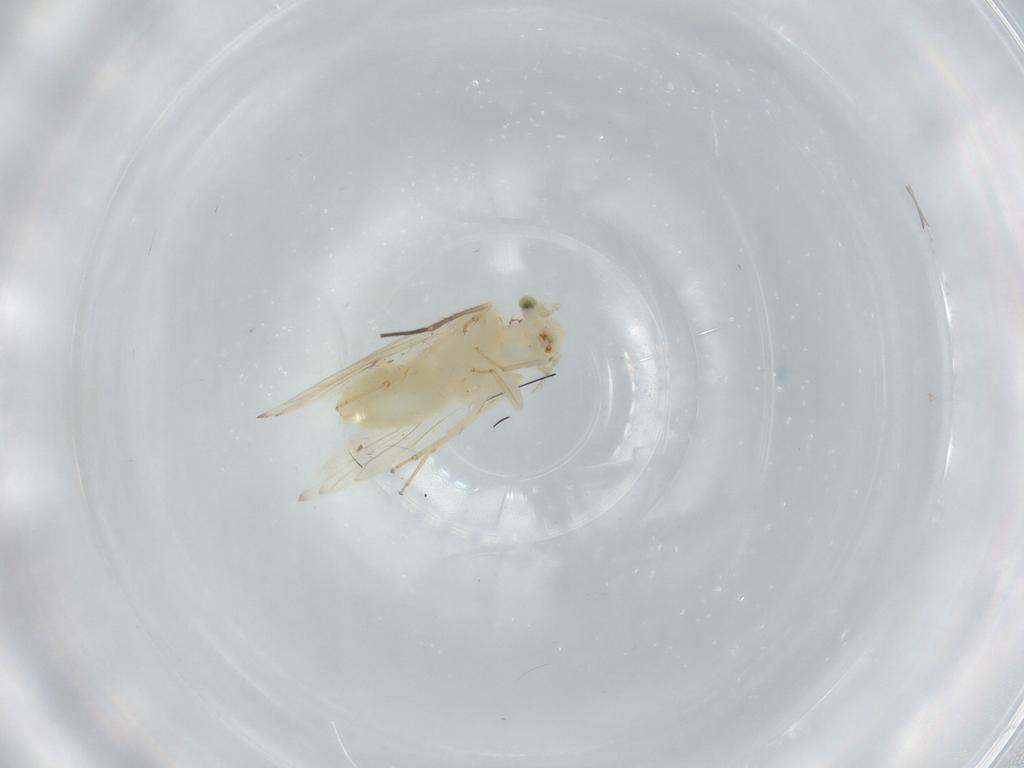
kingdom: Animalia
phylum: Arthropoda
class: Insecta
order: Psocodea
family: Lepidopsocidae
